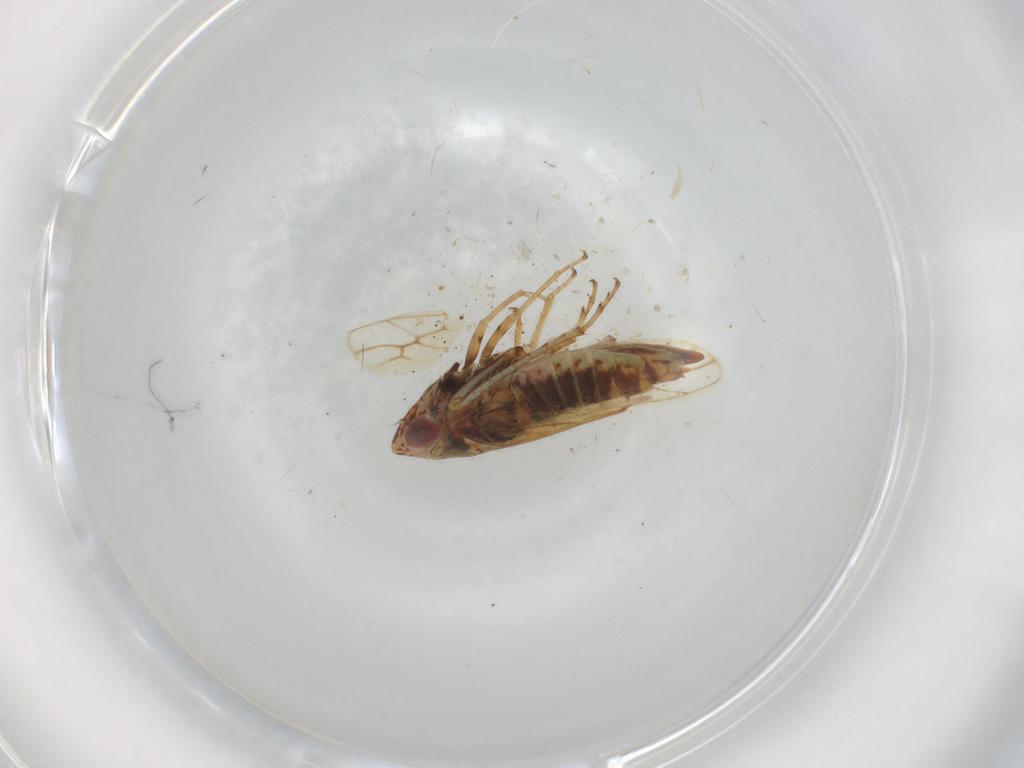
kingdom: Animalia
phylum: Arthropoda
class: Insecta
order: Hemiptera
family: Cicadellidae
